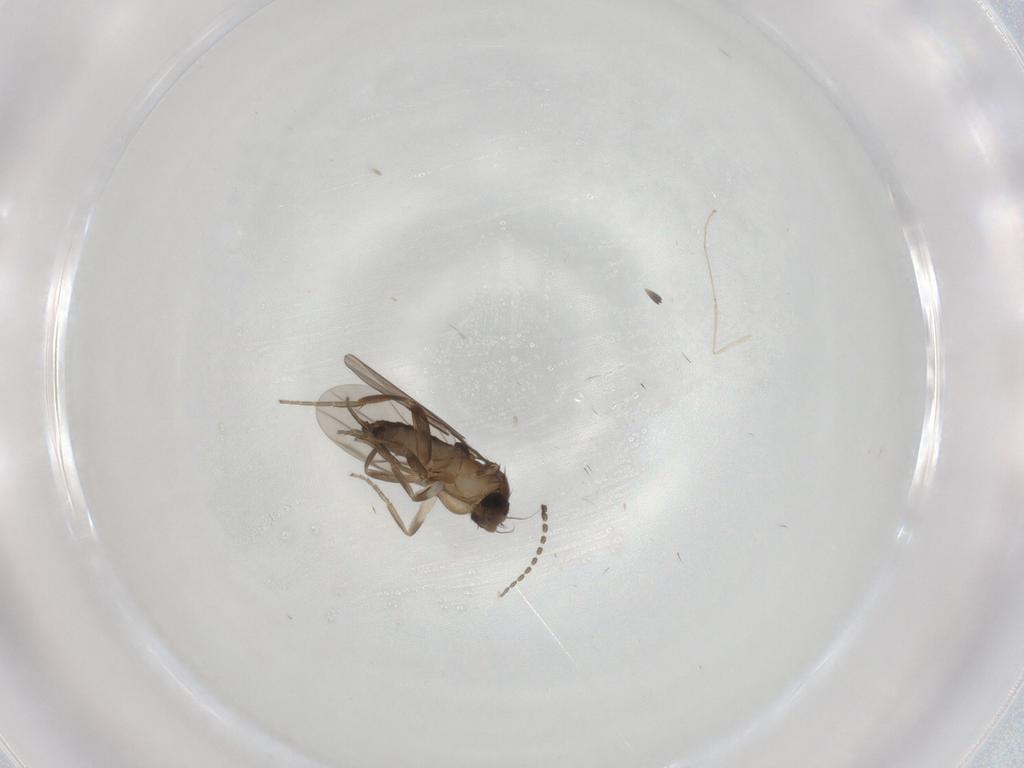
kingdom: Animalia
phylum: Arthropoda
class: Insecta
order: Diptera
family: Cecidomyiidae
